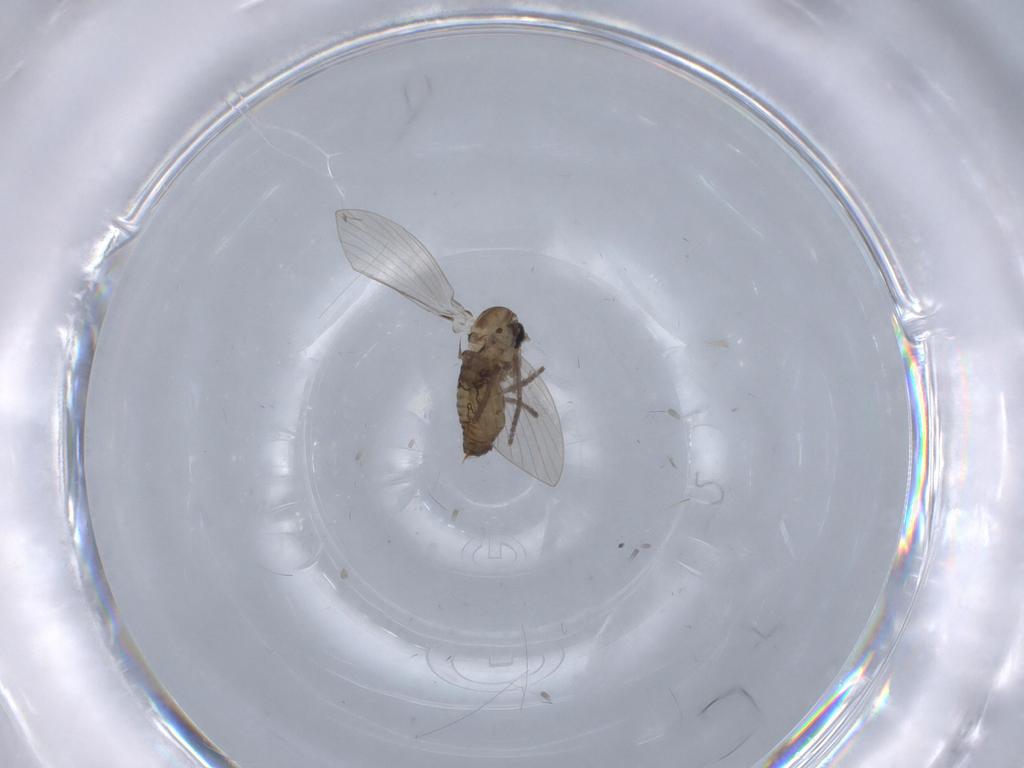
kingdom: Animalia
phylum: Arthropoda
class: Insecta
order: Diptera
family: Drosophilidae
